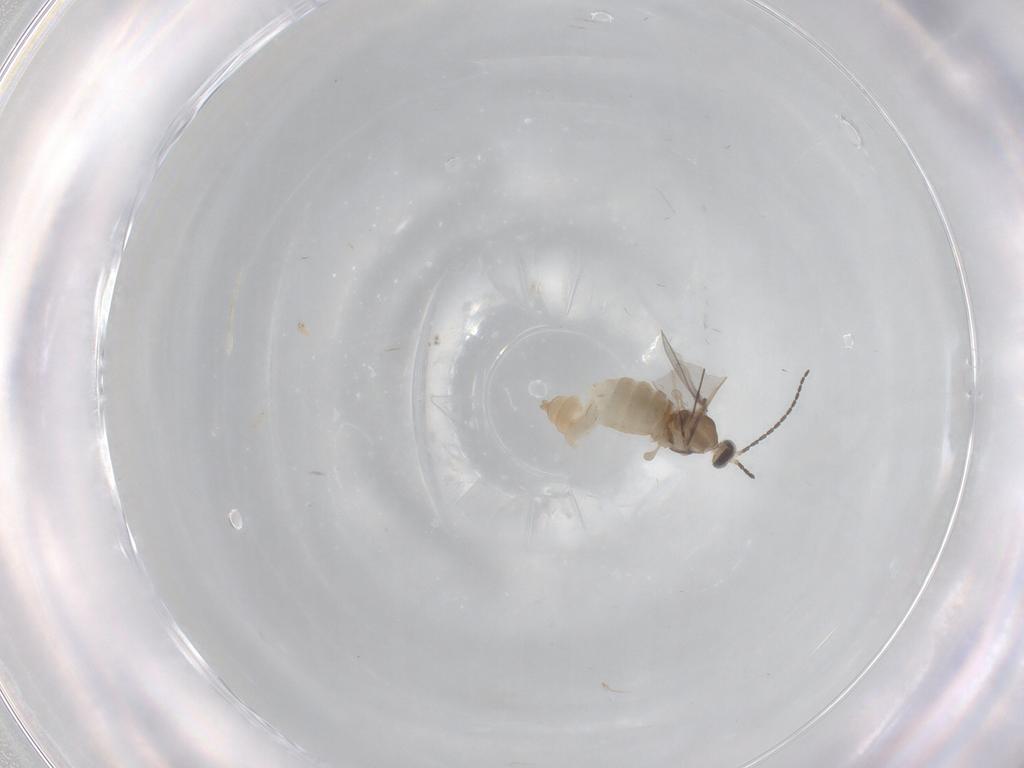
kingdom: Animalia
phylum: Arthropoda
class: Insecta
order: Diptera
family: Cecidomyiidae
